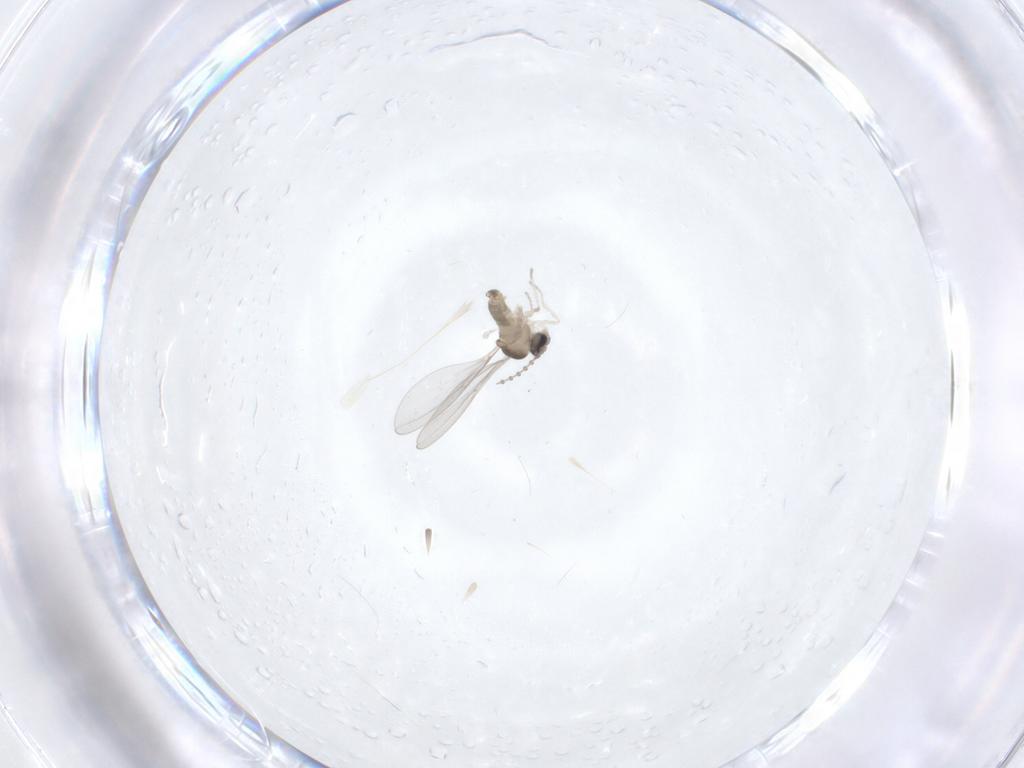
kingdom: Animalia
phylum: Arthropoda
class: Insecta
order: Diptera
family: Cecidomyiidae
